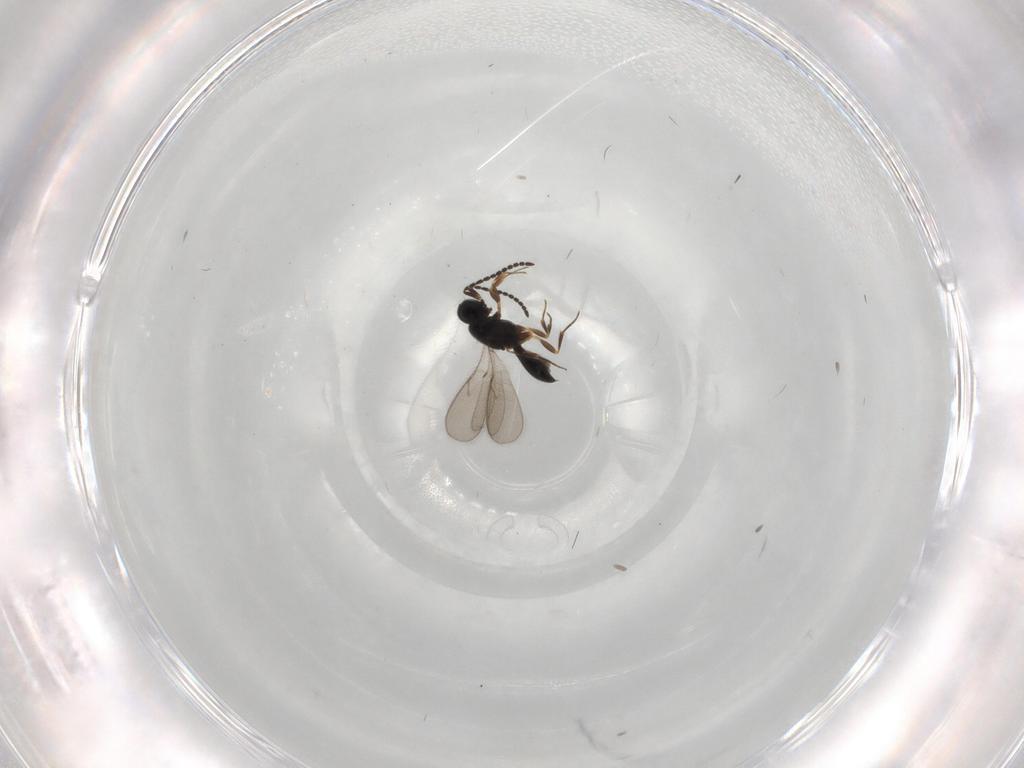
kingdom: Animalia
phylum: Arthropoda
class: Insecta
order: Hymenoptera
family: Scelionidae
